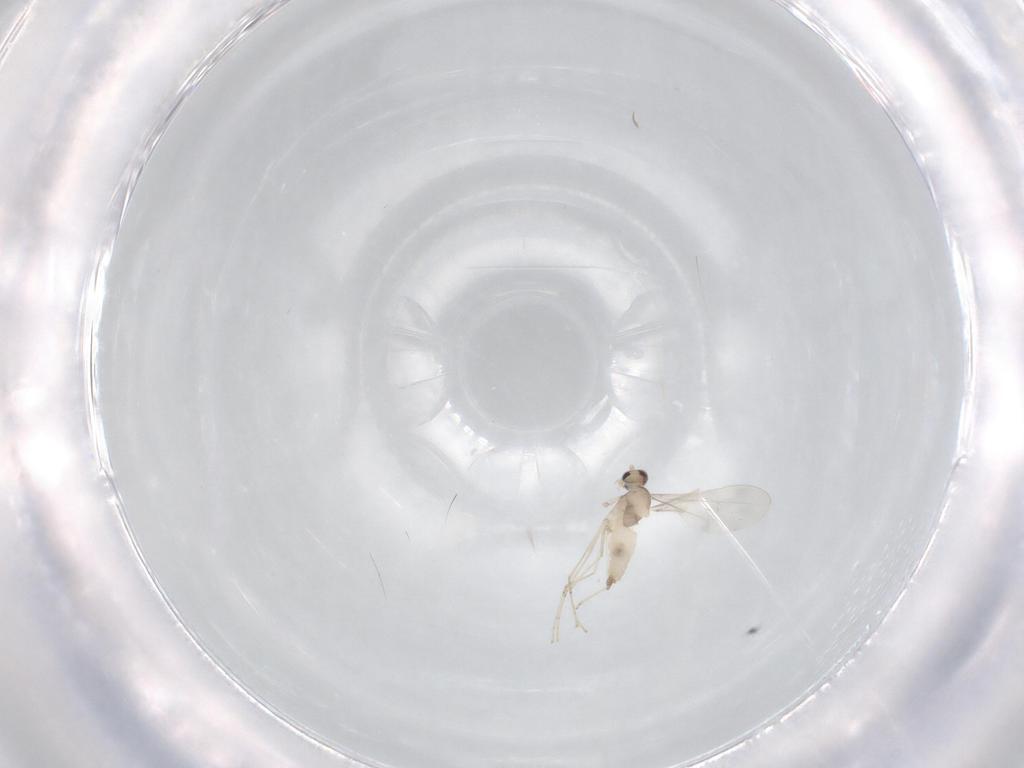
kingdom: Animalia
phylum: Arthropoda
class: Insecta
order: Diptera
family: Cecidomyiidae
